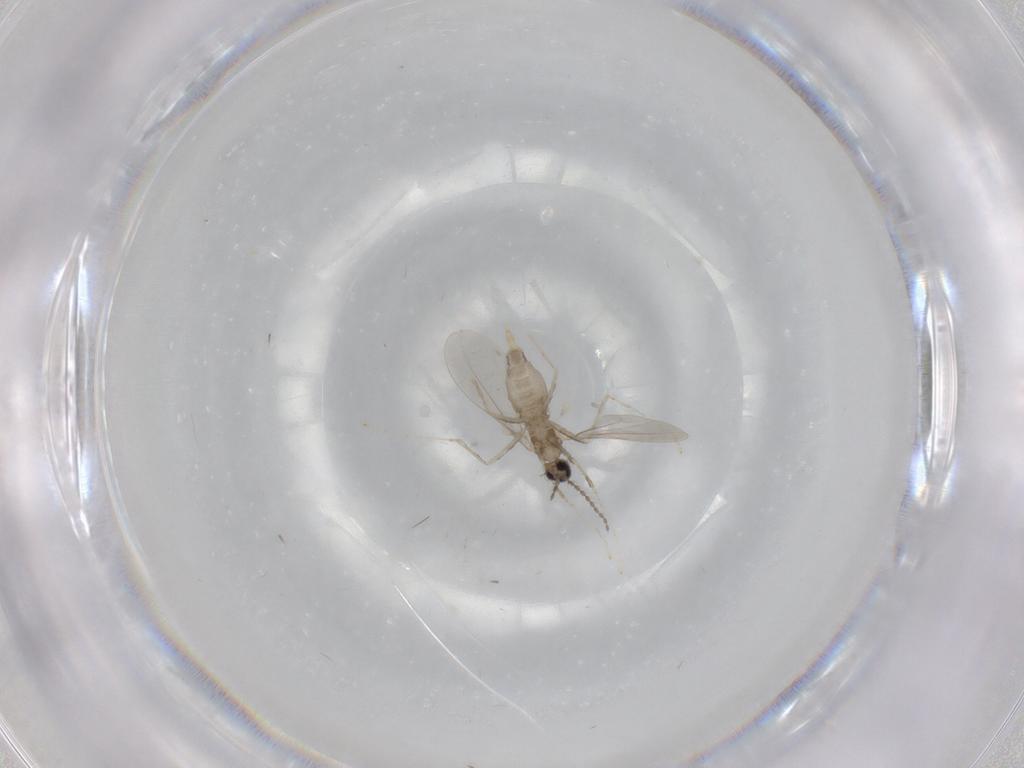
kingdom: Animalia
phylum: Arthropoda
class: Insecta
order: Diptera
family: Cecidomyiidae
